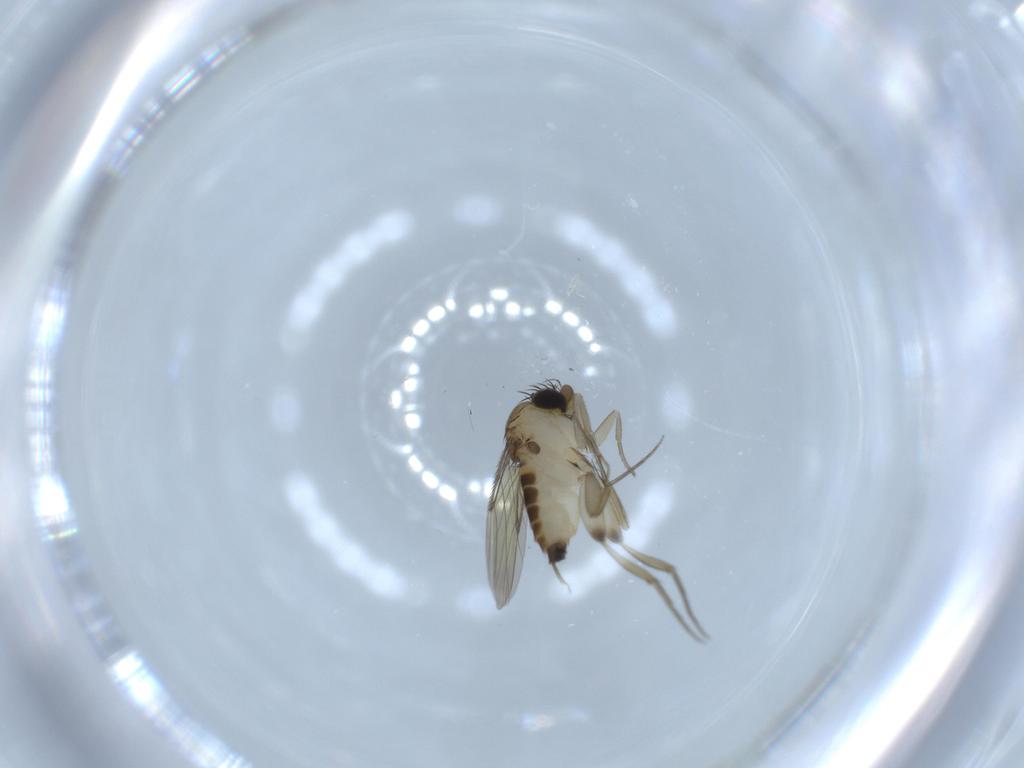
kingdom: Animalia
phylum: Arthropoda
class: Insecta
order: Diptera
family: Phoridae
